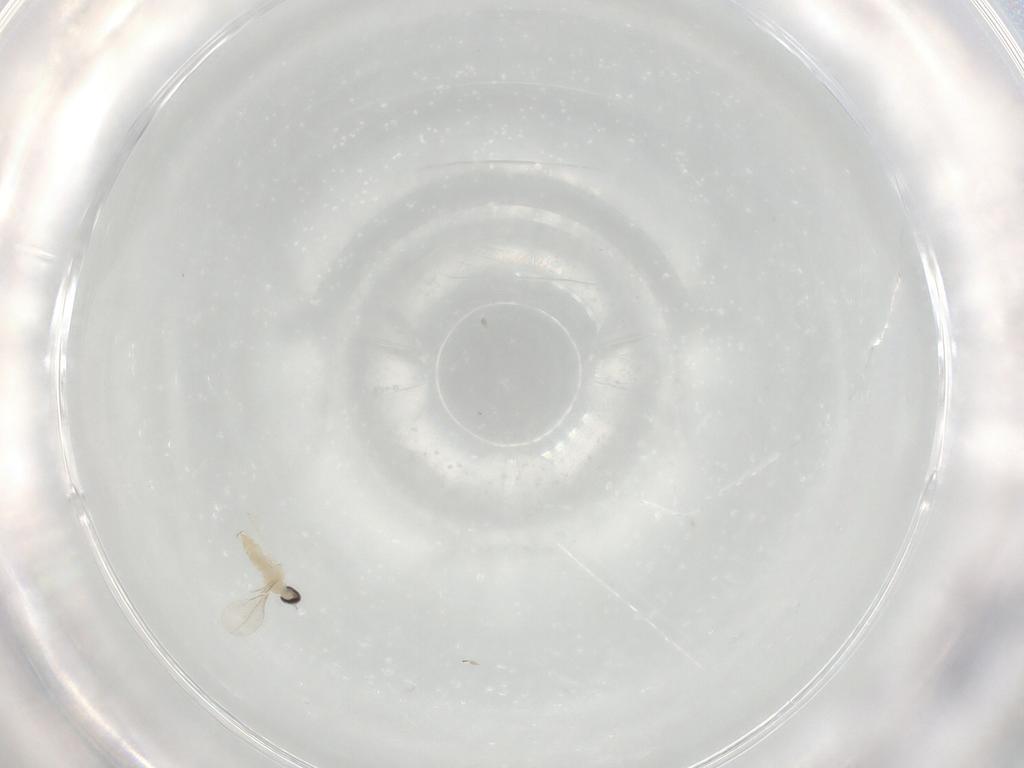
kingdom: Animalia
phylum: Arthropoda
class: Insecta
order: Diptera
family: Cecidomyiidae
